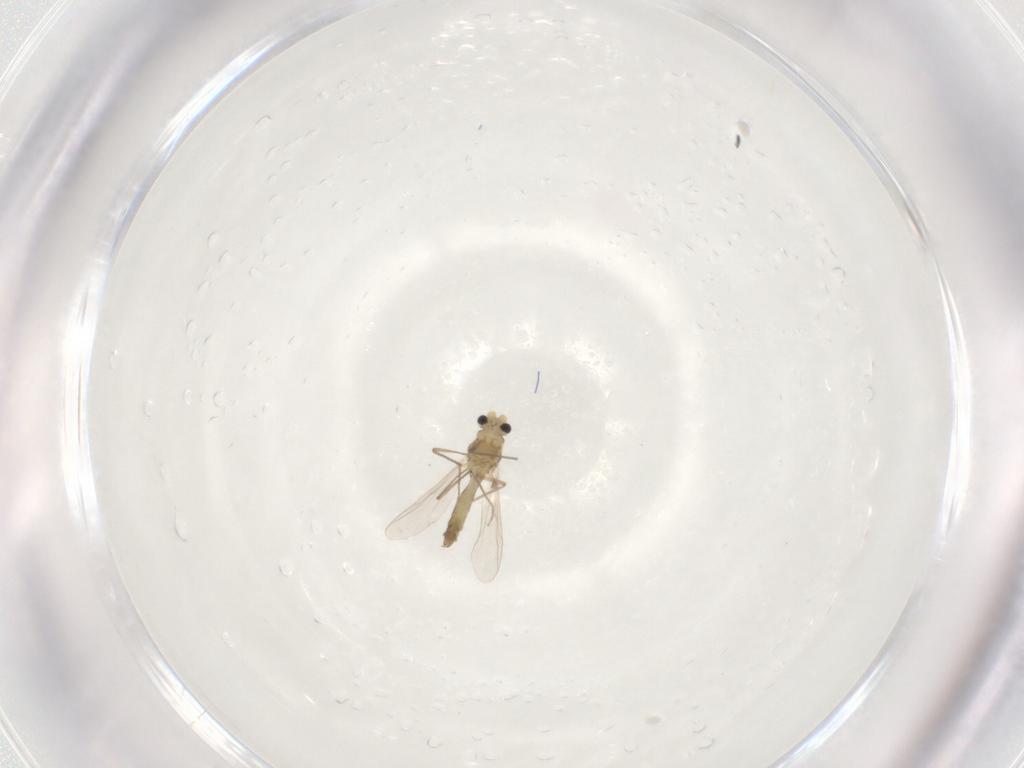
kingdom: Animalia
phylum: Arthropoda
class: Insecta
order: Diptera
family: Chironomidae
